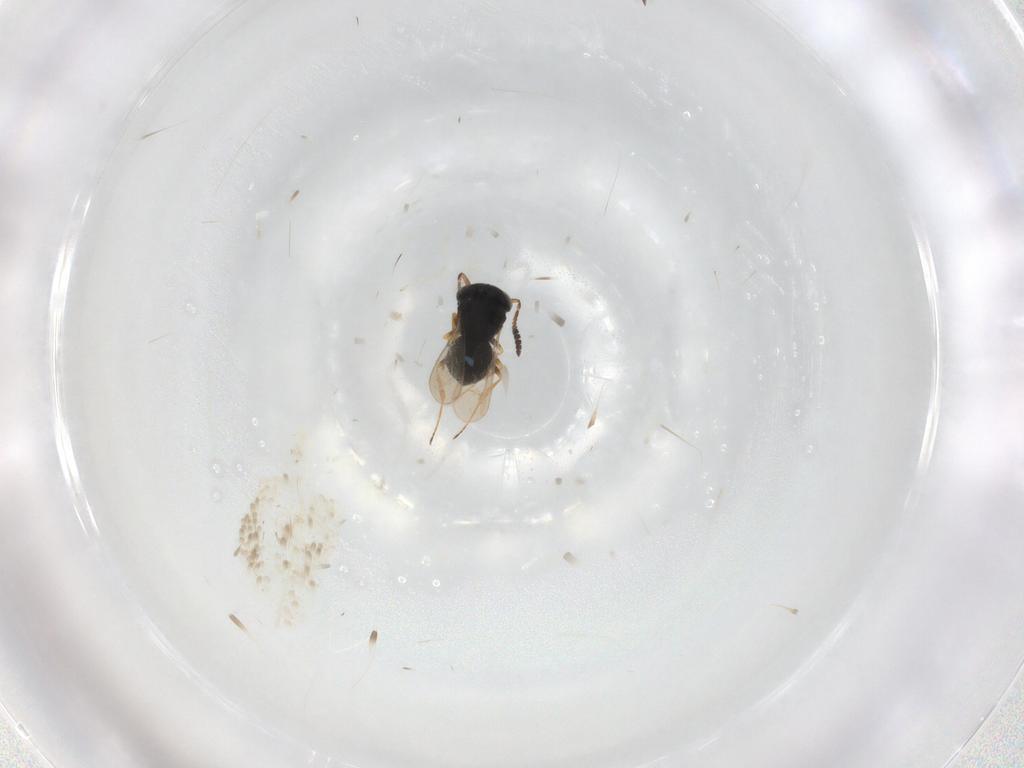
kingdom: Animalia
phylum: Arthropoda
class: Insecta
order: Hymenoptera
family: Scelionidae
